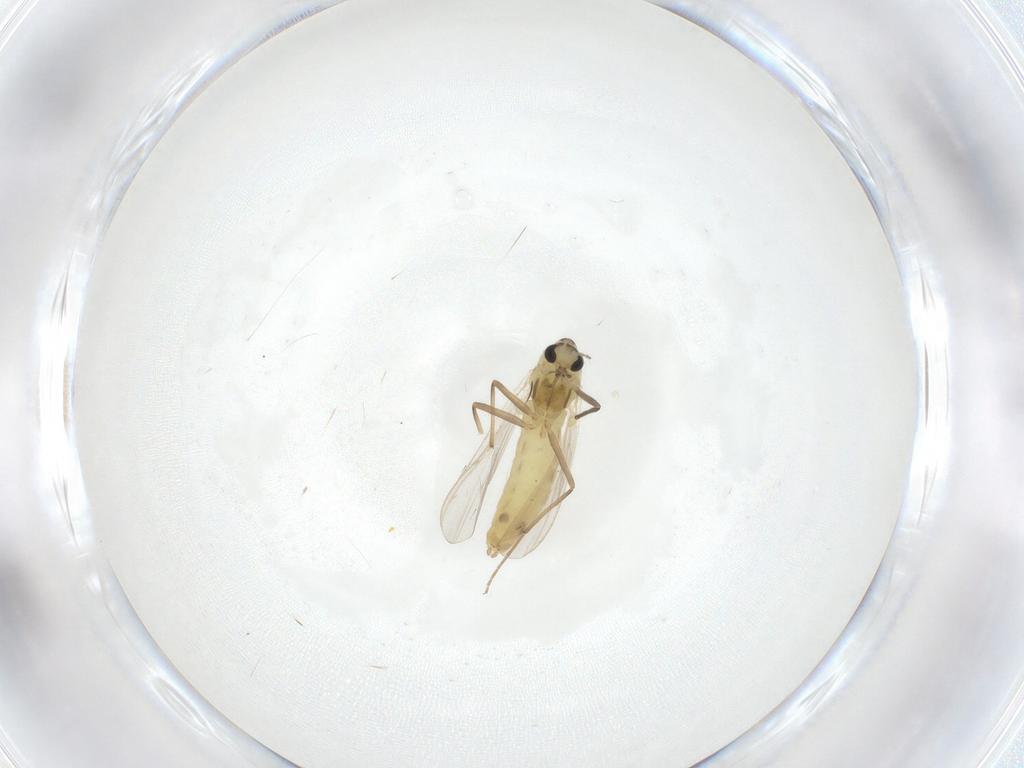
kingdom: Animalia
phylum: Arthropoda
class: Insecta
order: Diptera
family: Chironomidae
